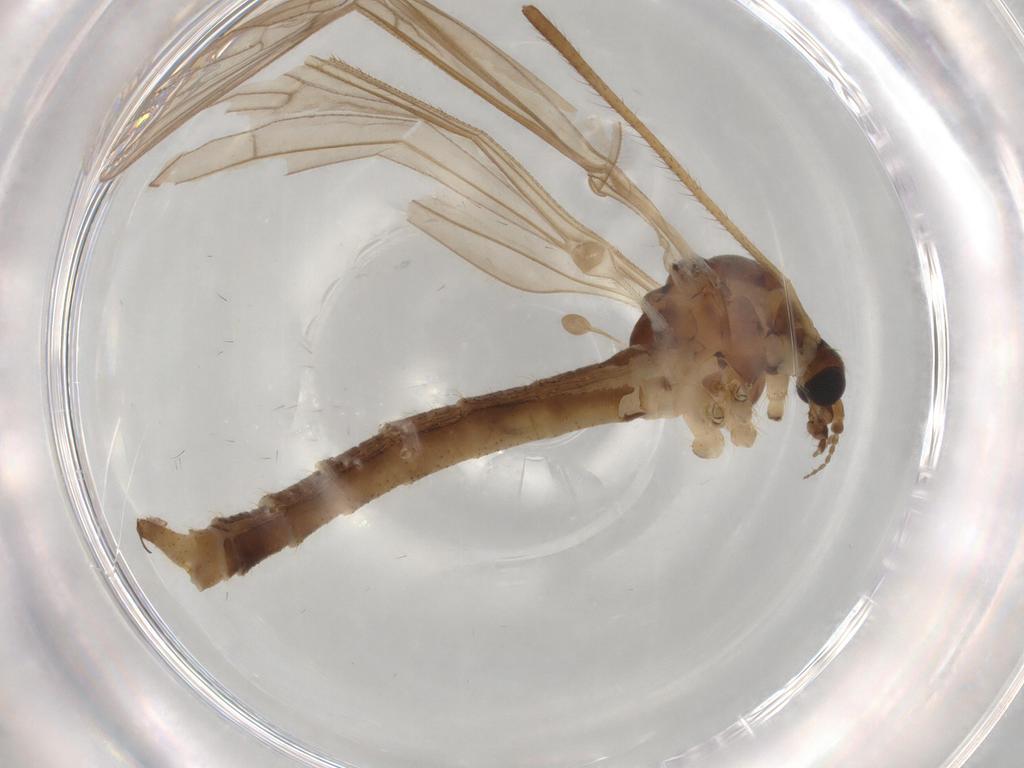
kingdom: Animalia
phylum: Arthropoda
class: Insecta
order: Diptera
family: Limoniidae
